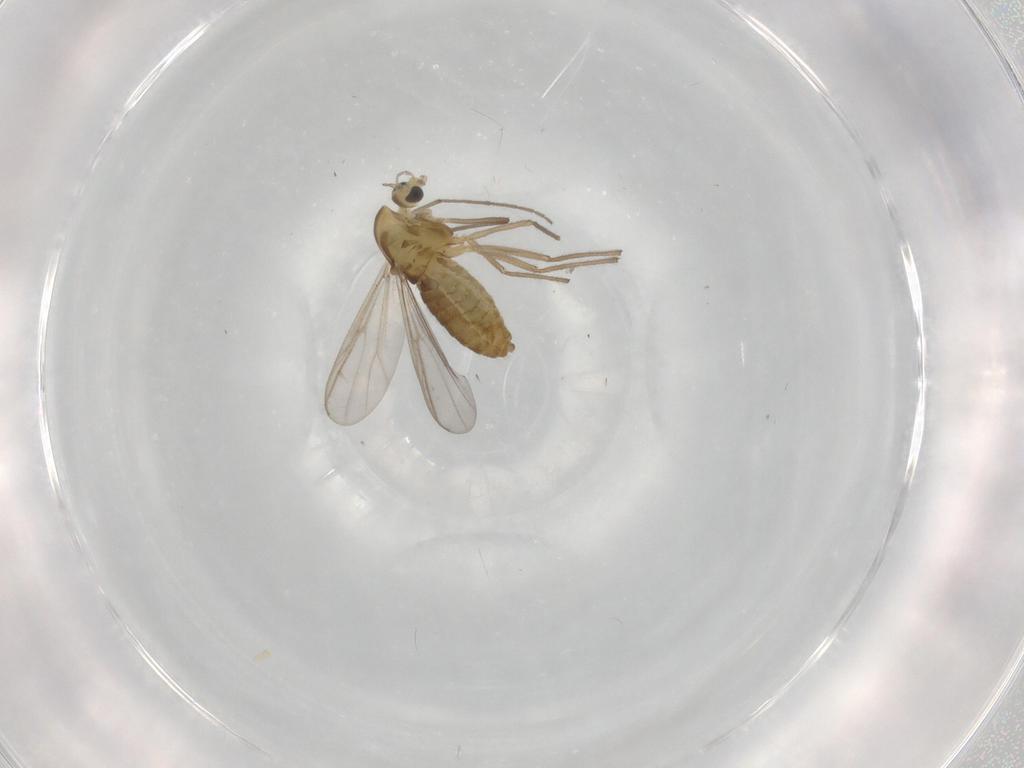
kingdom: Animalia
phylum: Arthropoda
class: Insecta
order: Diptera
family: Chironomidae
